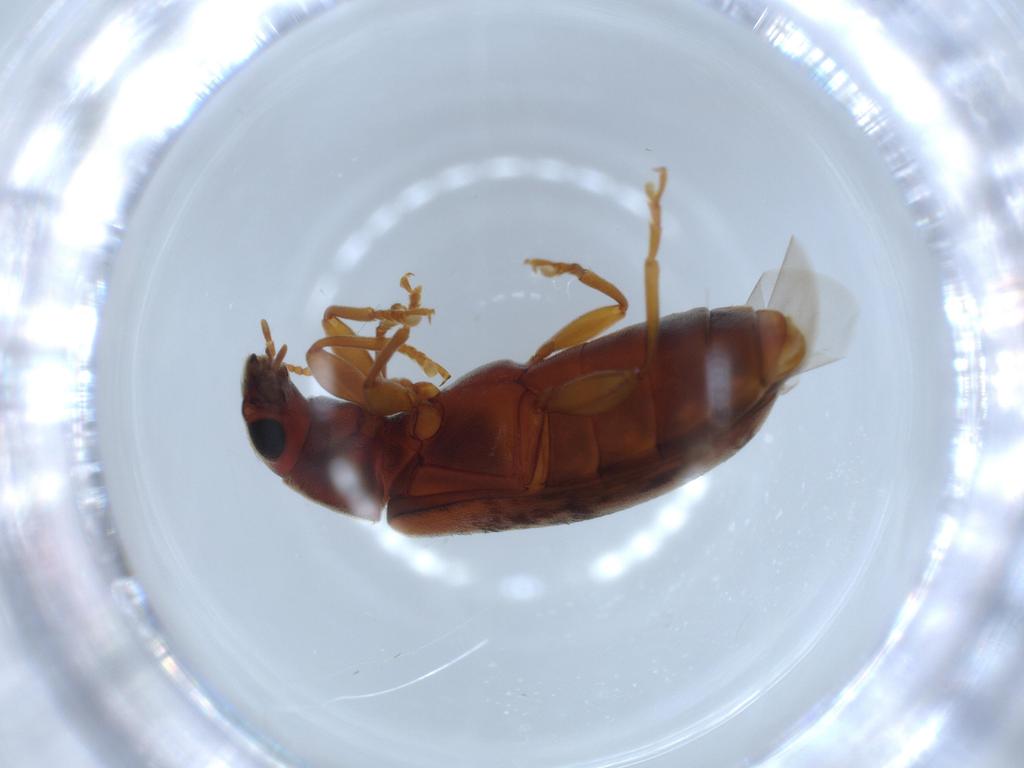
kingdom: Animalia
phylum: Arthropoda
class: Insecta
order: Coleoptera
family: Mycteridae
